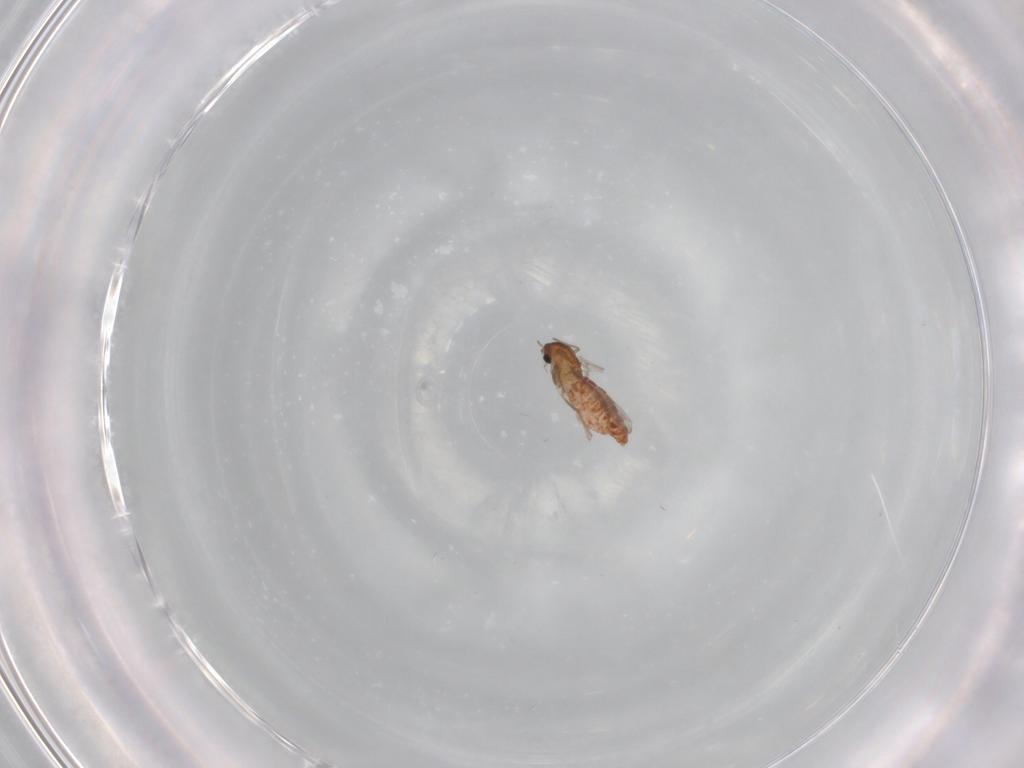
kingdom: Animalia
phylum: Arthropoda
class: Insecta
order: Diptera
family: Chironomidae
